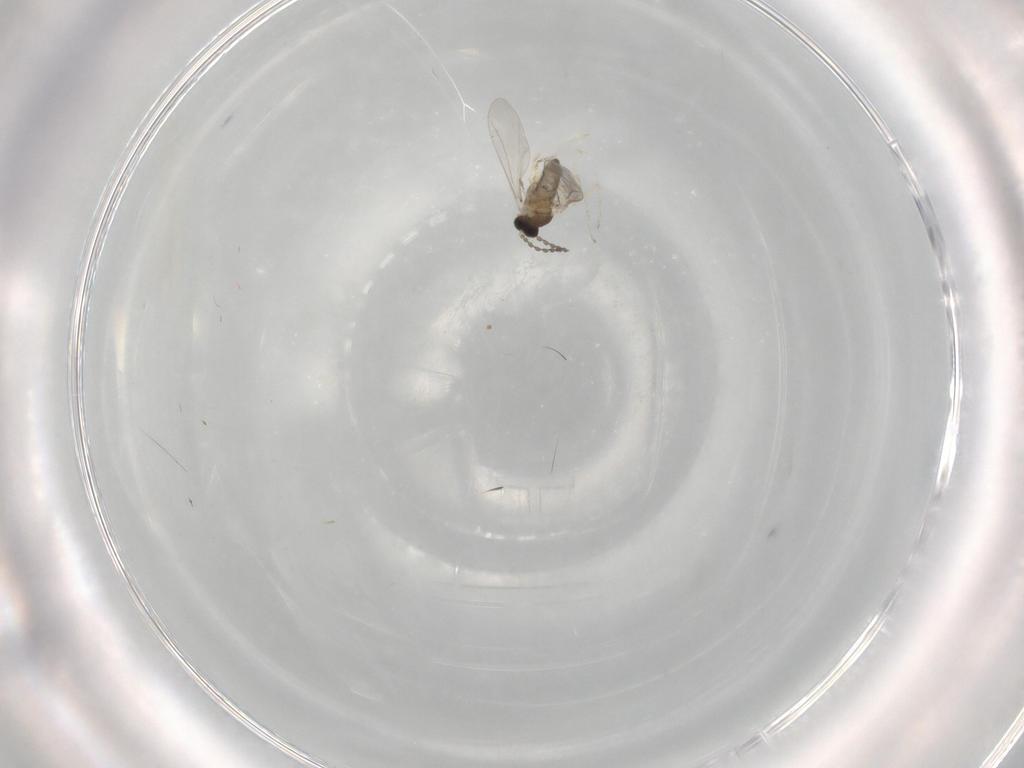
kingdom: Animalia
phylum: Arthropoda
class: Insecta
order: Diptera
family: Cecidomyiidae
